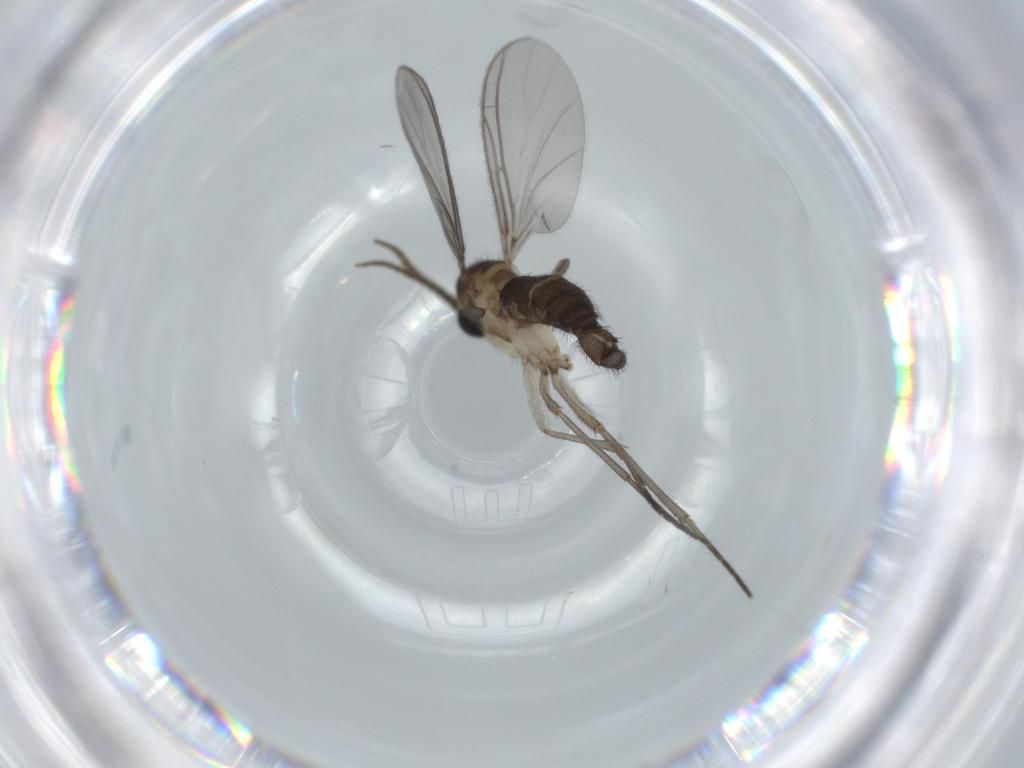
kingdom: Animalia
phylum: Arthropoda
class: Insecta
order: Diptera
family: Sciaridae
